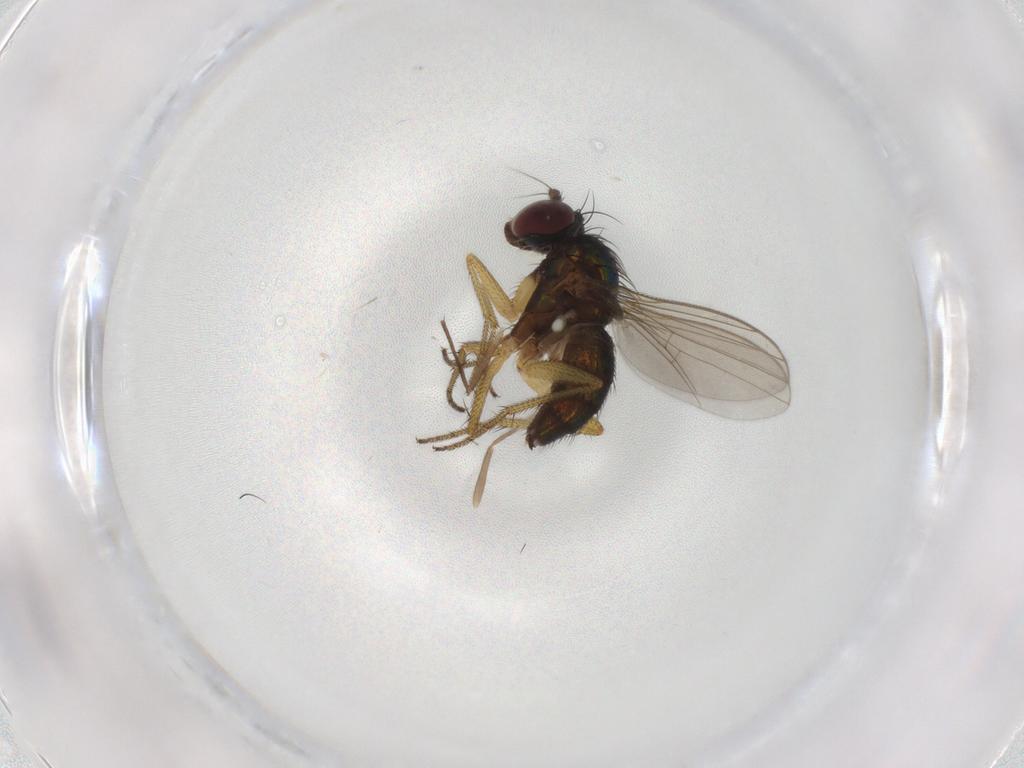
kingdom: Animalia
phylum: Arthropoda
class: Insecta
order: Diptera
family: Dolichopodidae
